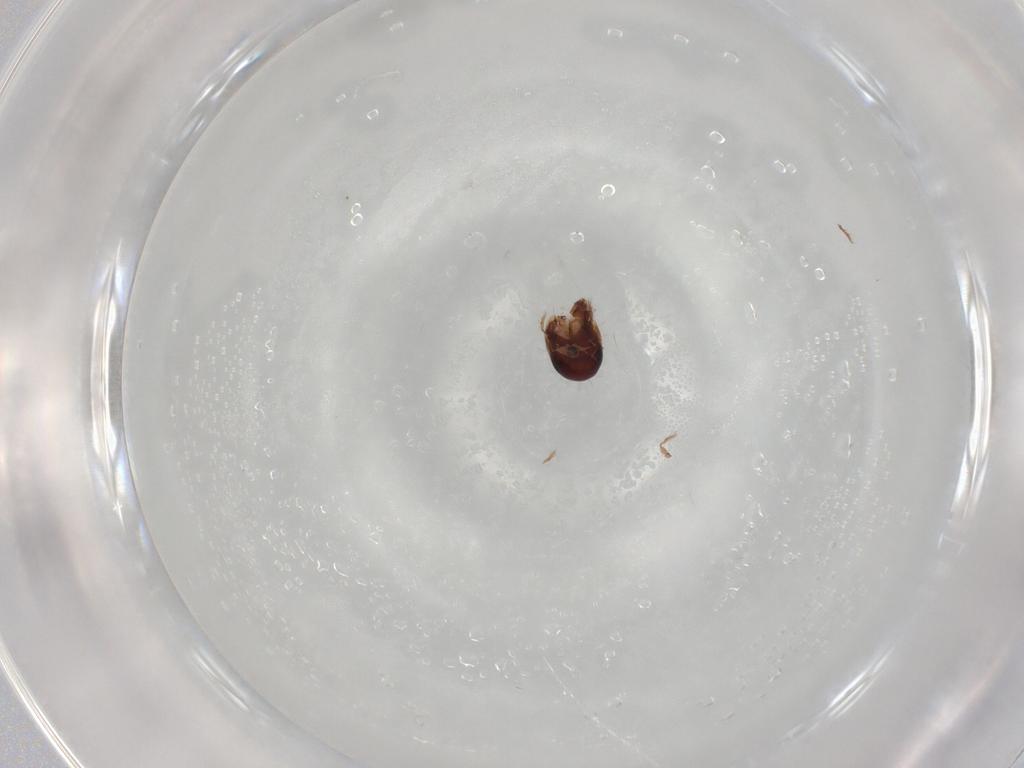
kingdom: Animalia
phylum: Arthropoda
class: Arachnida
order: Sarcoptiformes
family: Humerobatidae
